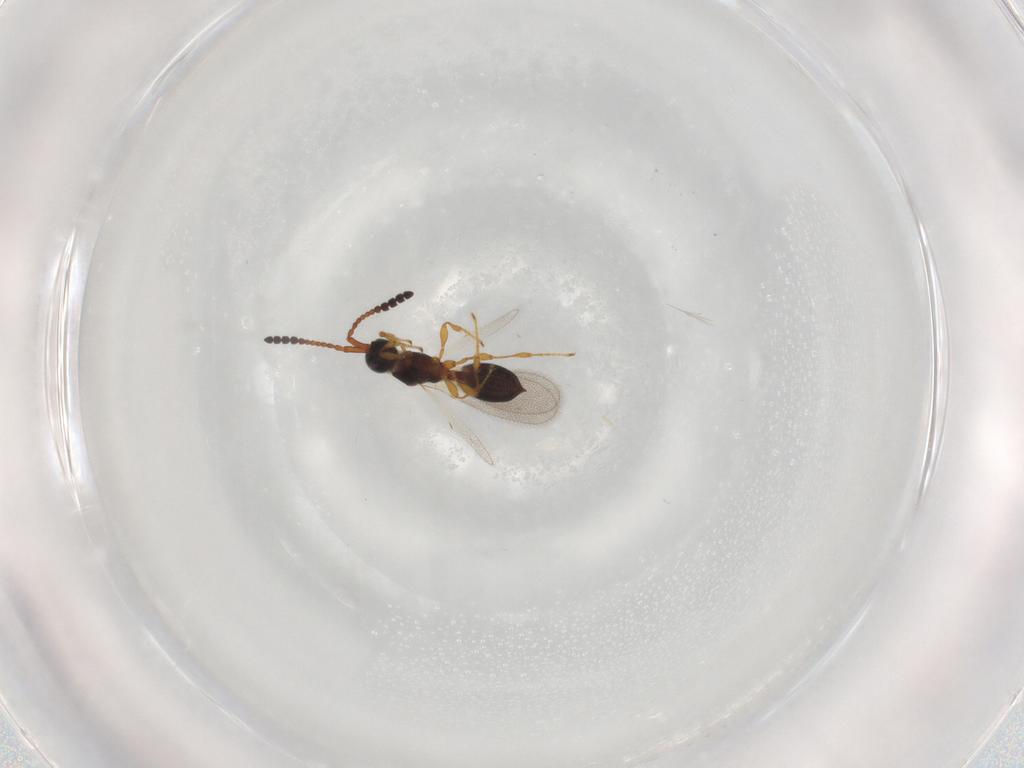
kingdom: Animalia
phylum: Arthropoda
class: Insecta
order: Hymenoptera
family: Diapriidae
